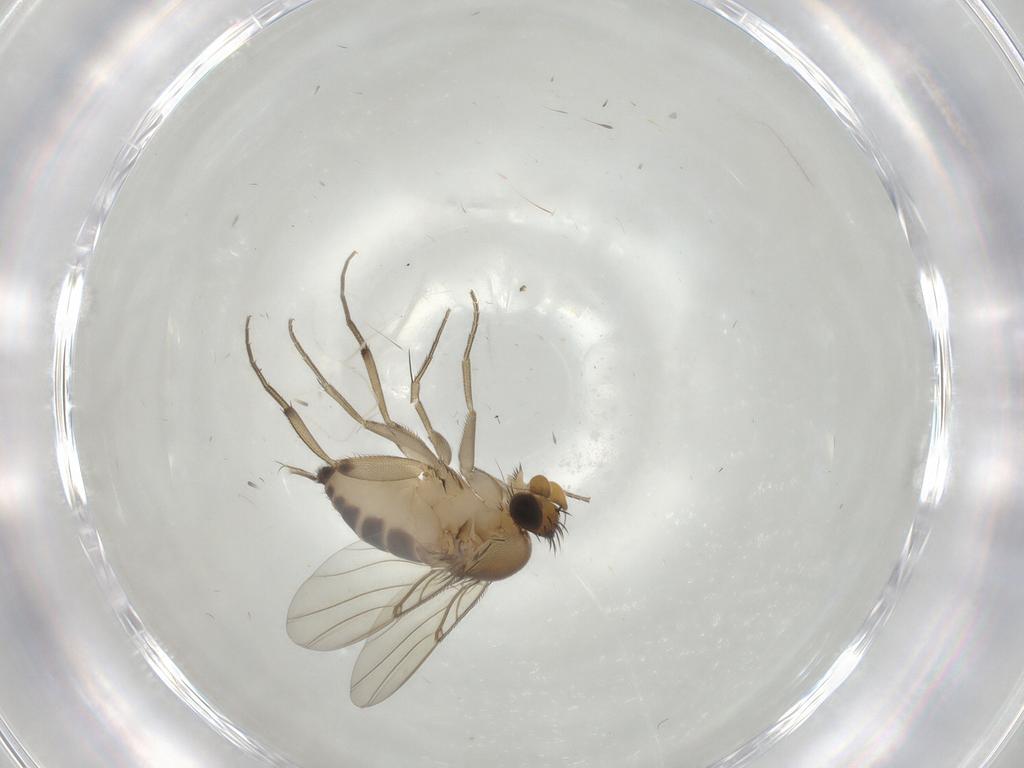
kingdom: Animalia
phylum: Arthropoda
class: Insecta
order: Diptera
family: Phoridae
